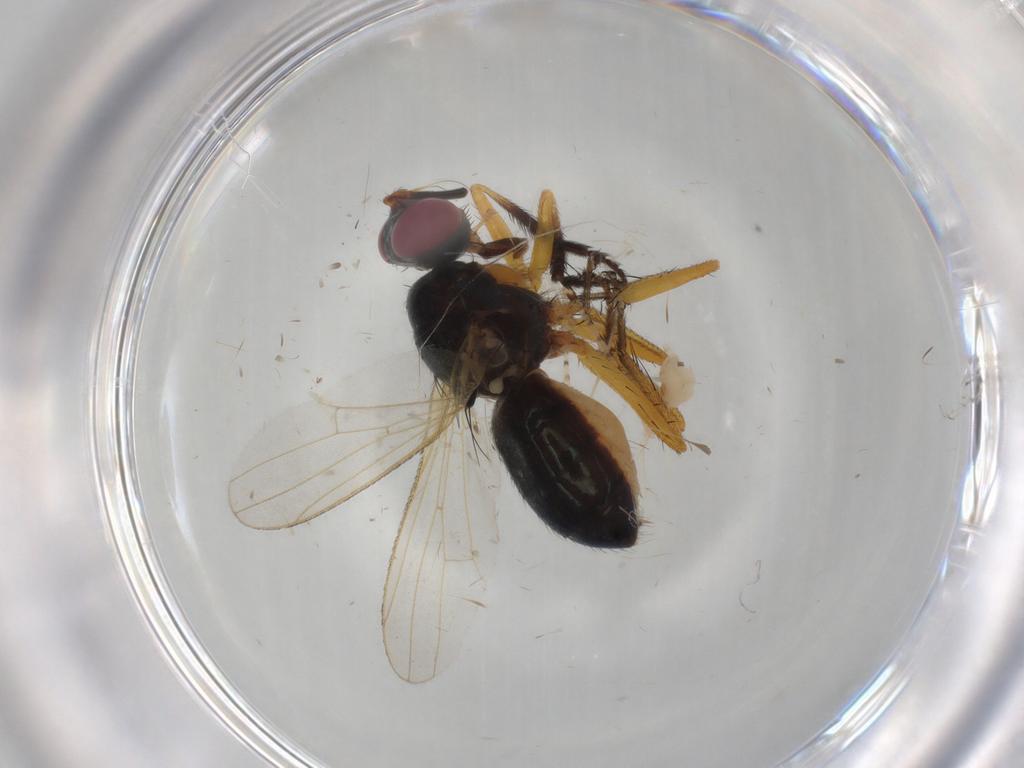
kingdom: Animalia
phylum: Arthropoda
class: Insecta
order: Diptera
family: Muscidae
